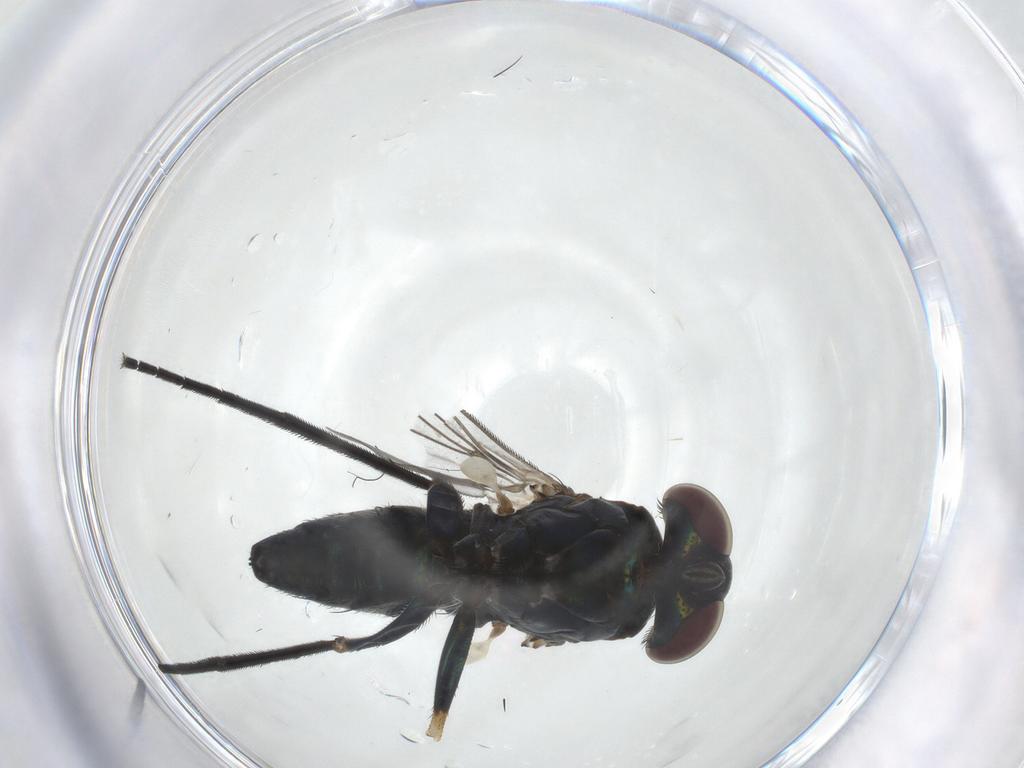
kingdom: Animalia
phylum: Arthropoda
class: Insecta
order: Diptera
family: Dolichopodidae
